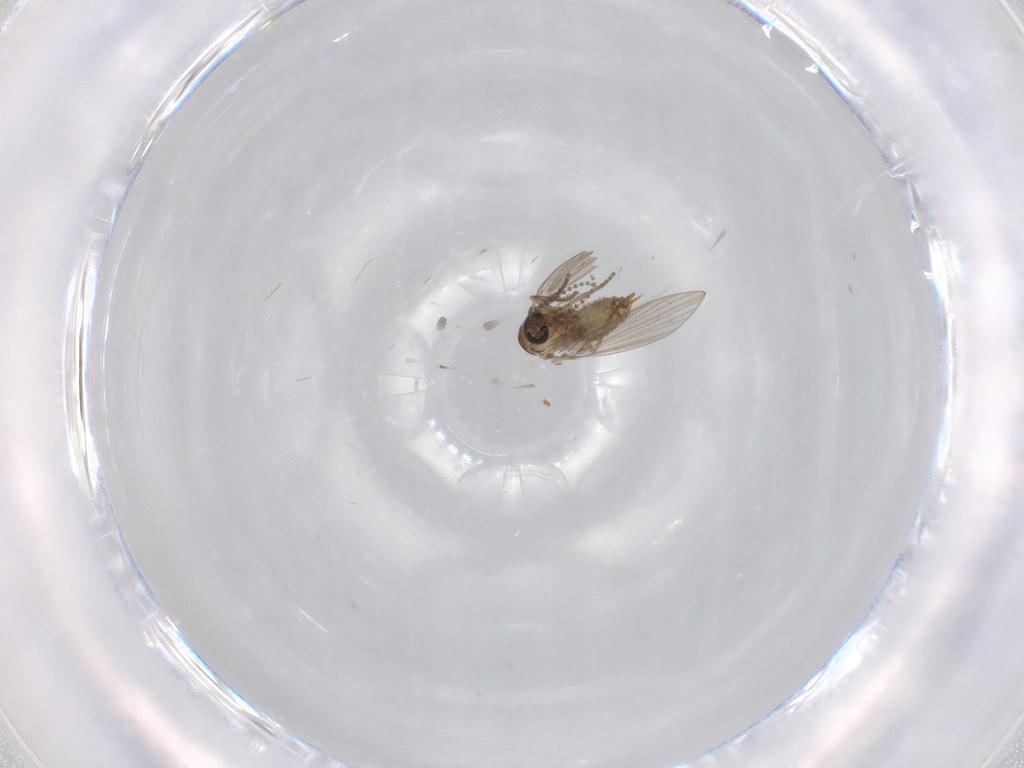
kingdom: Animalia
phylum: Arthropoda
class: Insecta
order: Diptera
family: Psychodidae
